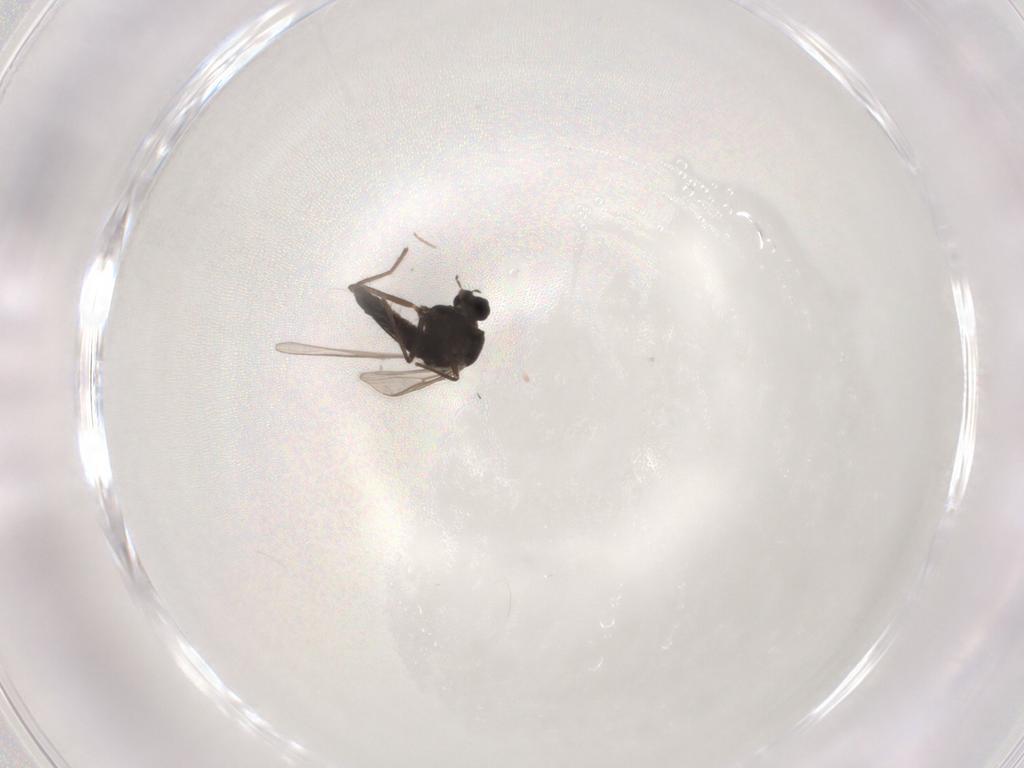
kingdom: Animalia
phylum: Arthropoda
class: Insecta
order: Diptera
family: Chironomidae
